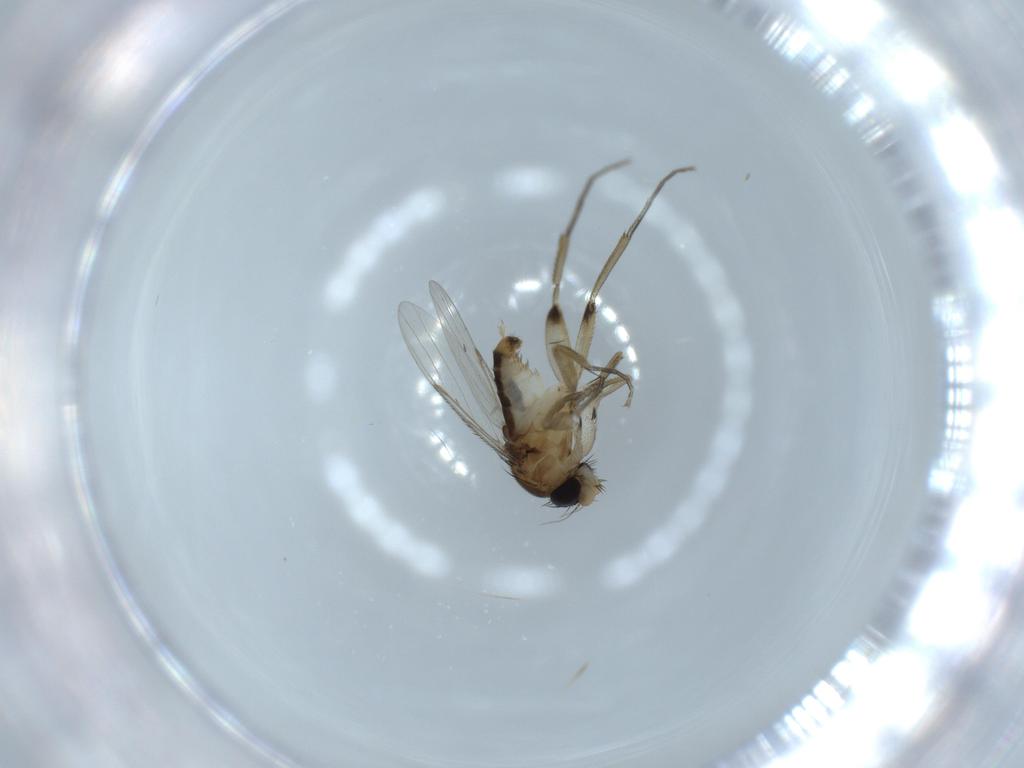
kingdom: Animalia
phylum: Arthropoda
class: Insecta
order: Diptera
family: Phoridae
